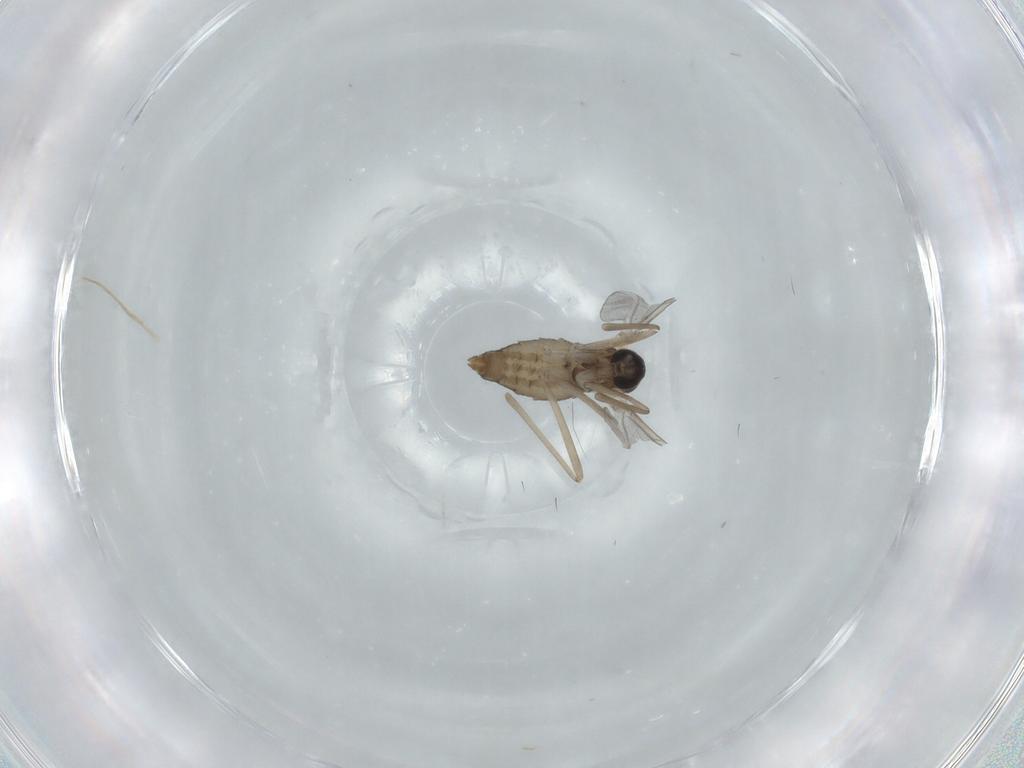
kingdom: Animalia
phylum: Arthropoda
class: Insecta
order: Diptera
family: Cecidomyiidae
